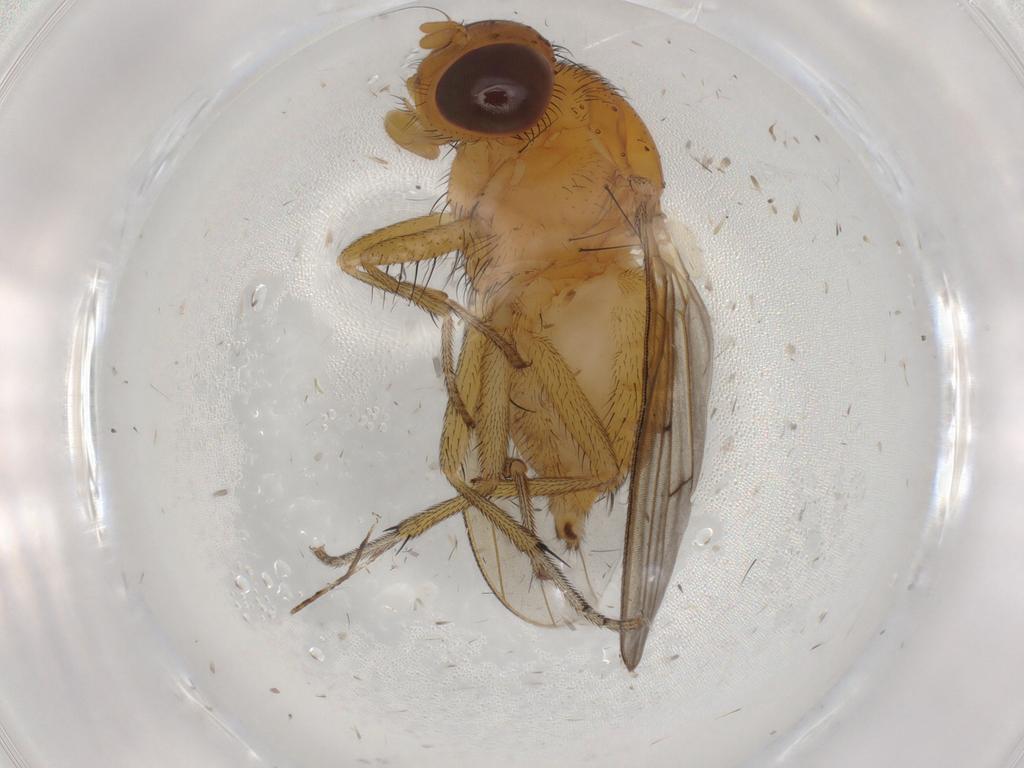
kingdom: Animalia
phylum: Arthropoda
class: Insecta
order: Diptera
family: Lauxaniidae
